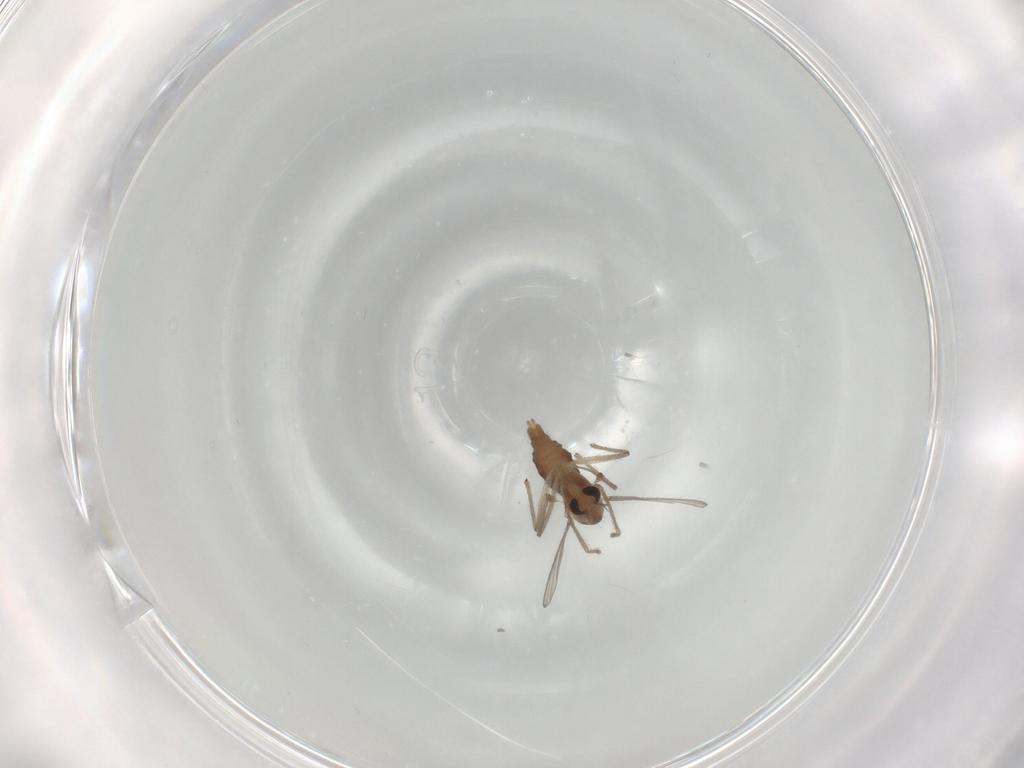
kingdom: Animalia
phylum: Arthropoda
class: Insecta
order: Diptera
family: Chironomidae
